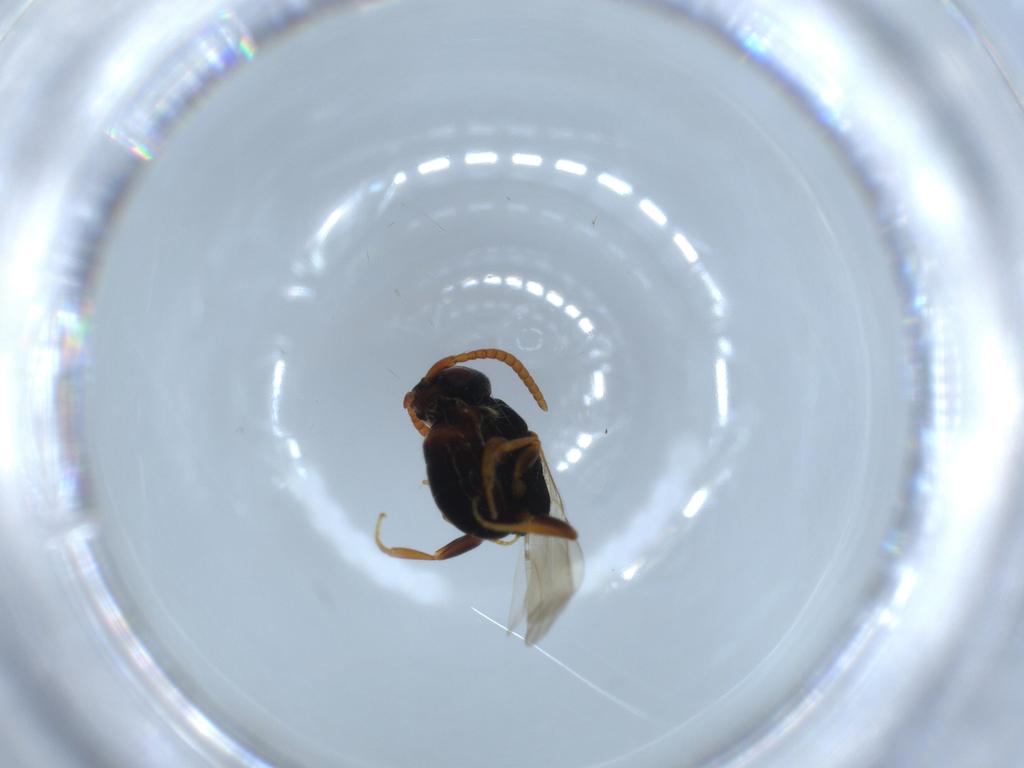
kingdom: Animalia
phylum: Arthropoda
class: Insecta
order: Hymenoptera
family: Bethylidae
